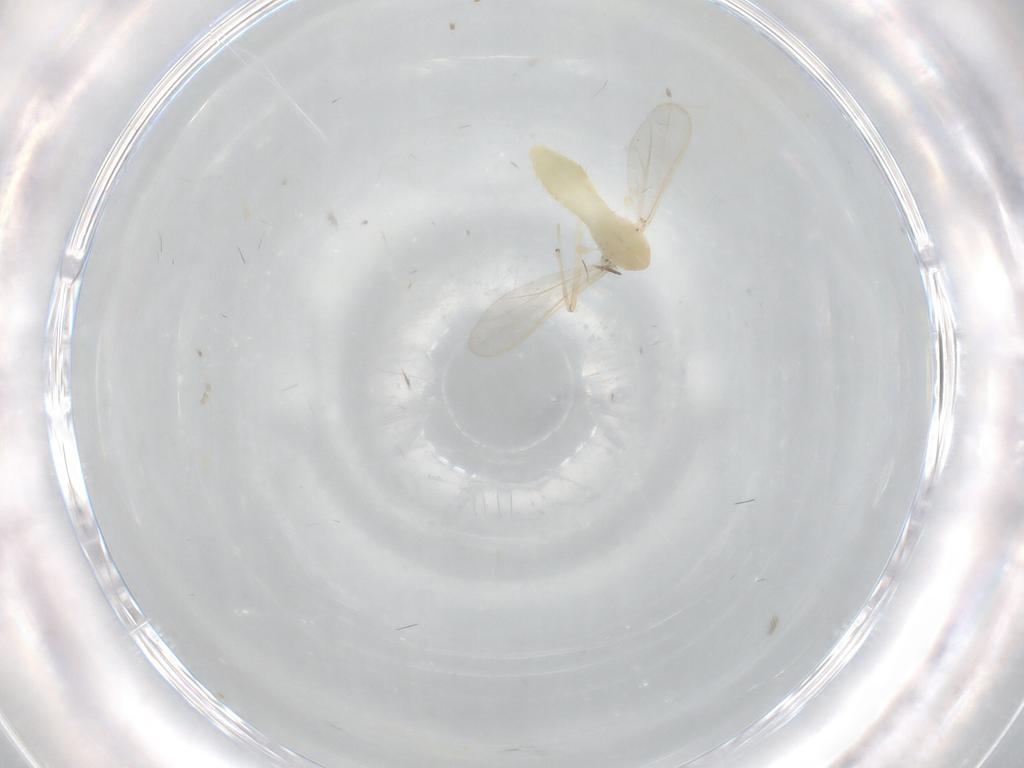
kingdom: Animalia
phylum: Arthropoda
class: Insecta
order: Diptera
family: Chironomidae
